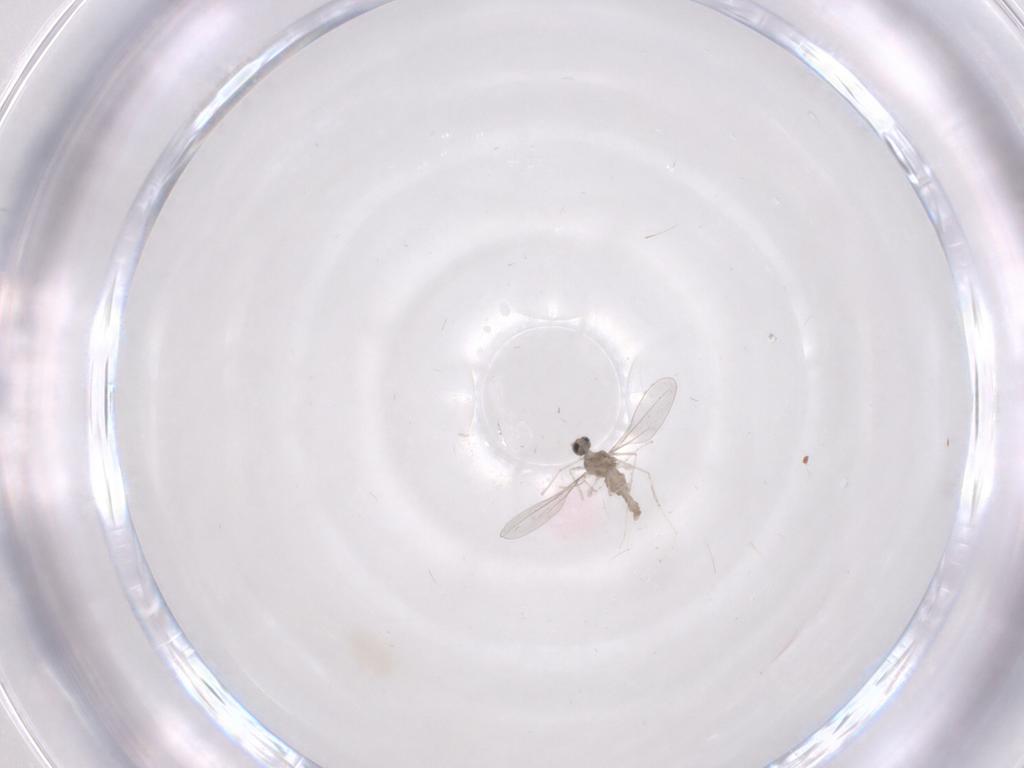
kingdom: Animalia
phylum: Arthropoda
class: Insecta
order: Diptera
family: Cecidomyiidae
